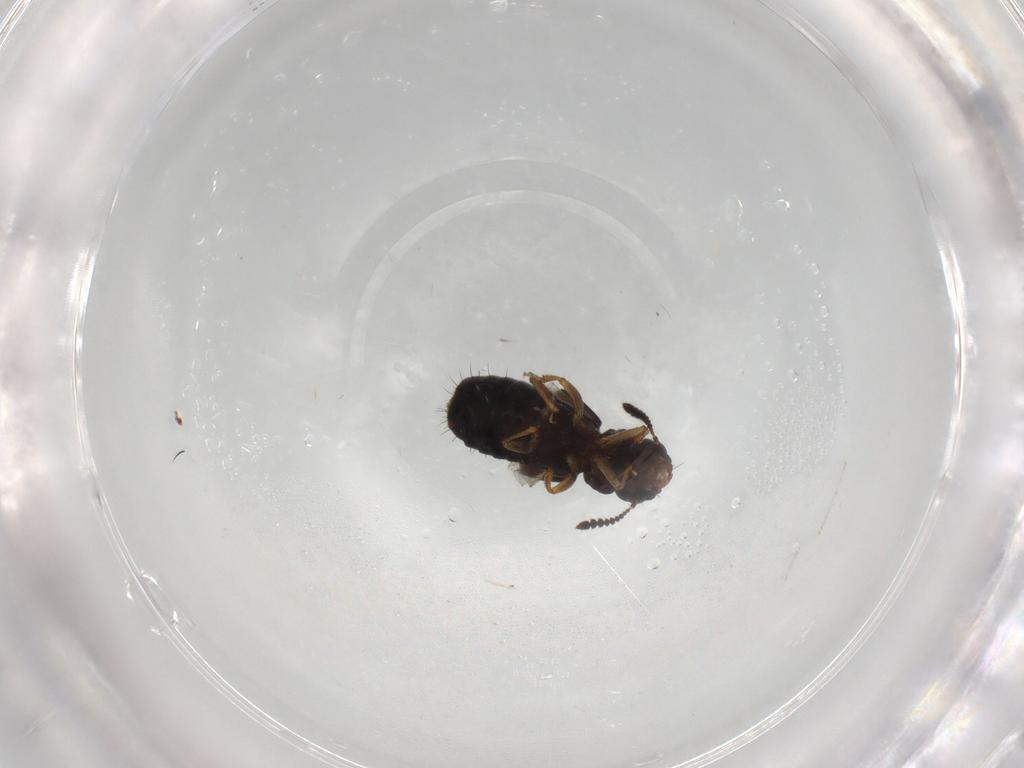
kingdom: Animalia
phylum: Arthropoda
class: Insecta
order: Coleoptera
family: Staphylinidae
